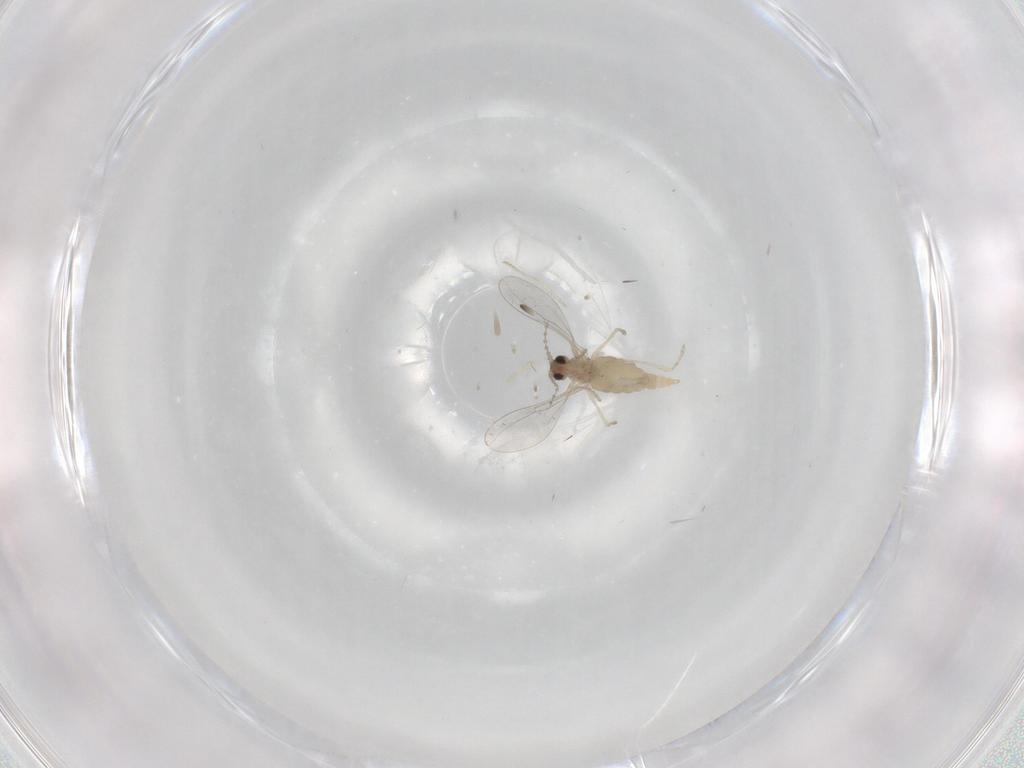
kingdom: Animalia
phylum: Arthropoda
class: Insecta
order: Diptera
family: Cecidomyiidae
